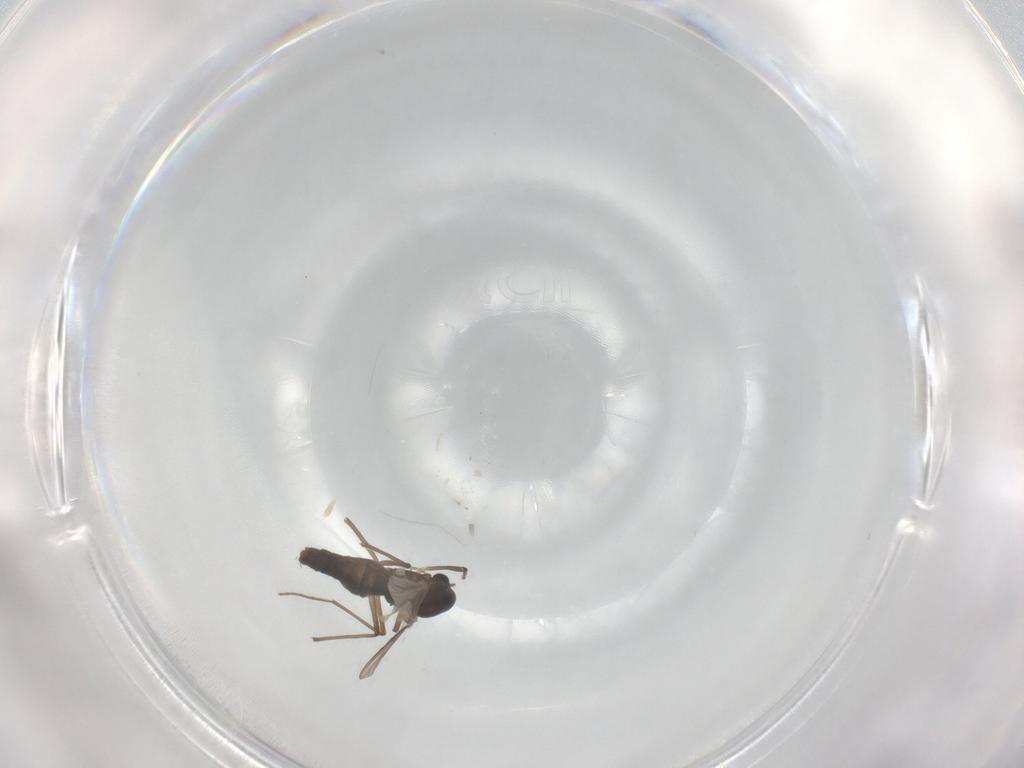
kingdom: Animalia
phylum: Arthropoda
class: Insecta
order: Diptera
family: Chironomidae
